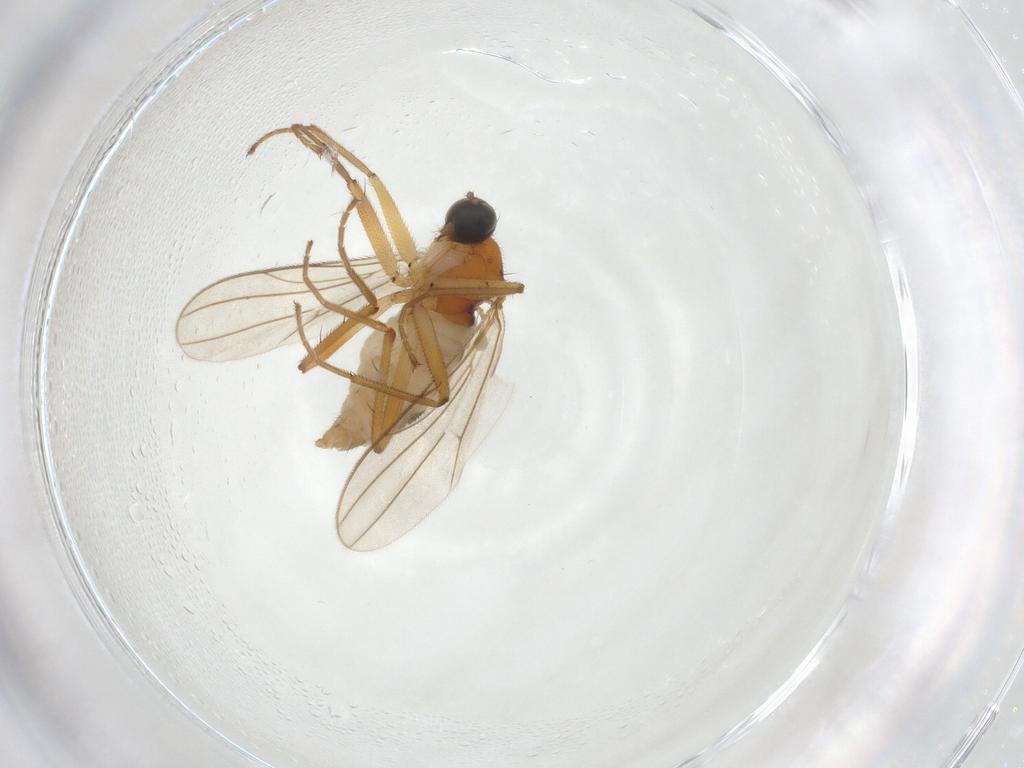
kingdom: Animalia
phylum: Arthropoda
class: Insecta
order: Diptera
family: Hybotidae
